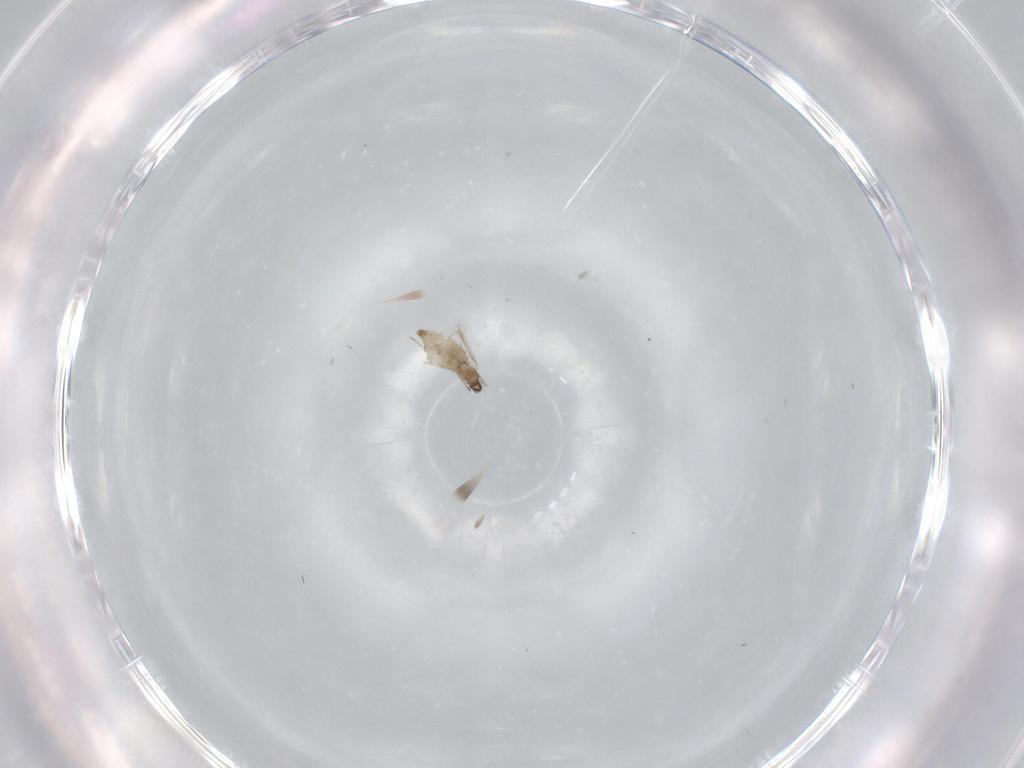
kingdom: Animalia
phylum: Arthropoda
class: Insecta
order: Diptera
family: Cecidomyiidae
